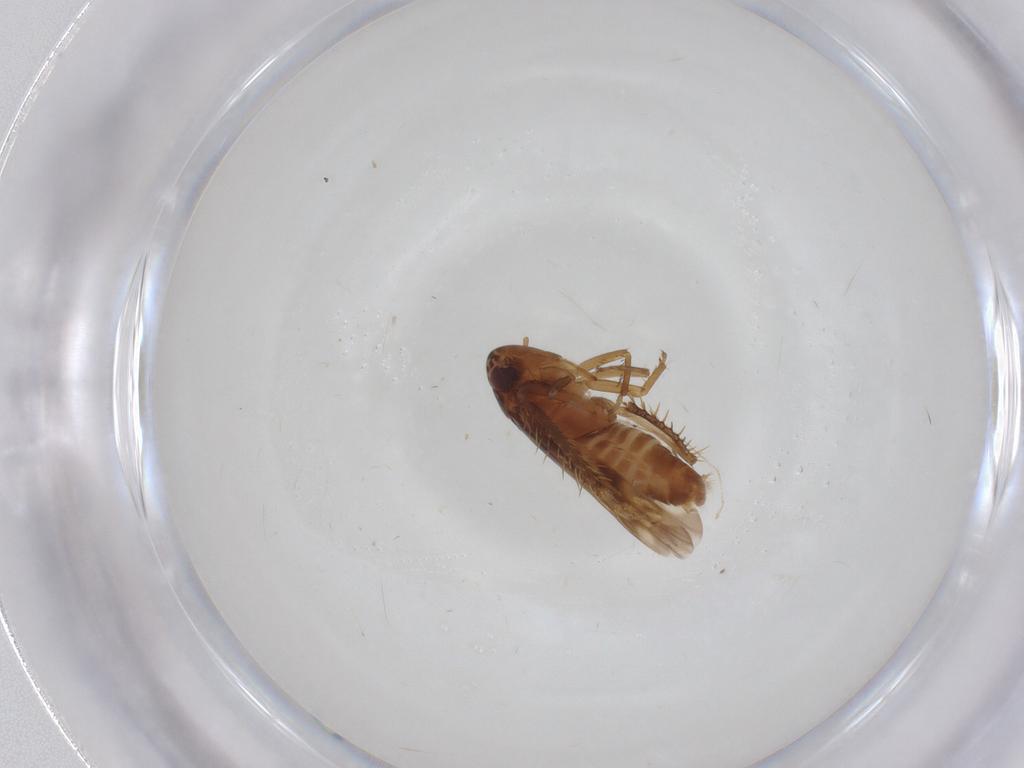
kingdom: Animalia
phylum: Arthropoda
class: Insecta
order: Hemiptera
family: Cicadellidae
